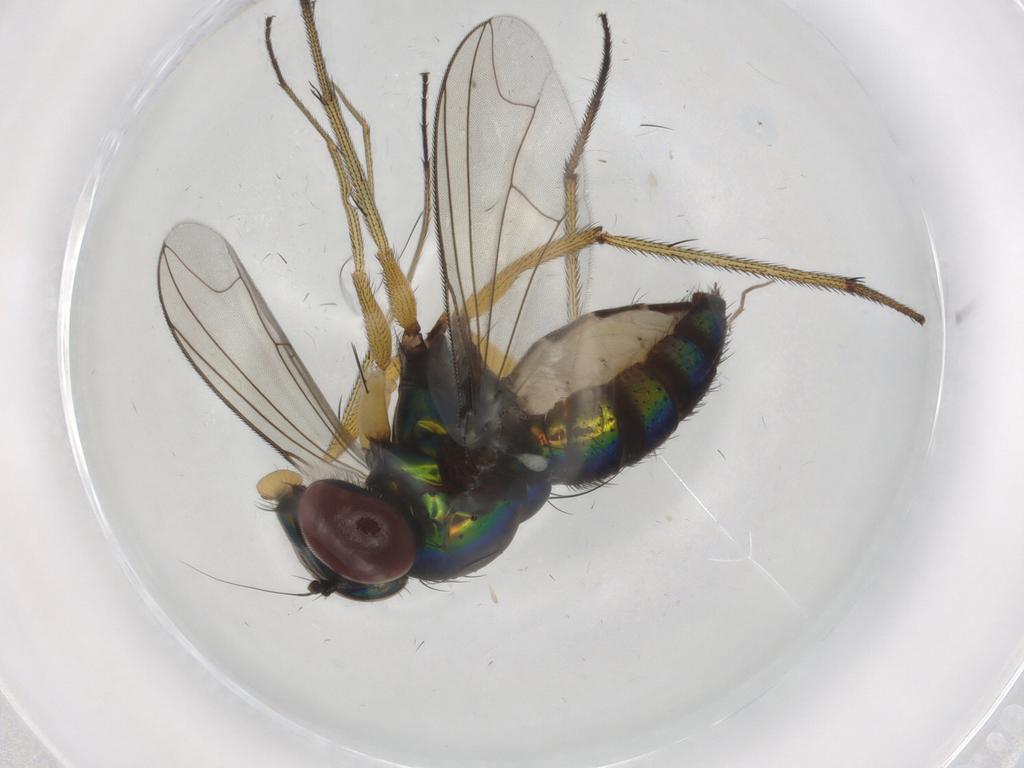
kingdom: Animalia
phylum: Arthropoda
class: Insecta
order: Diptera
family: Dolichopodidae
